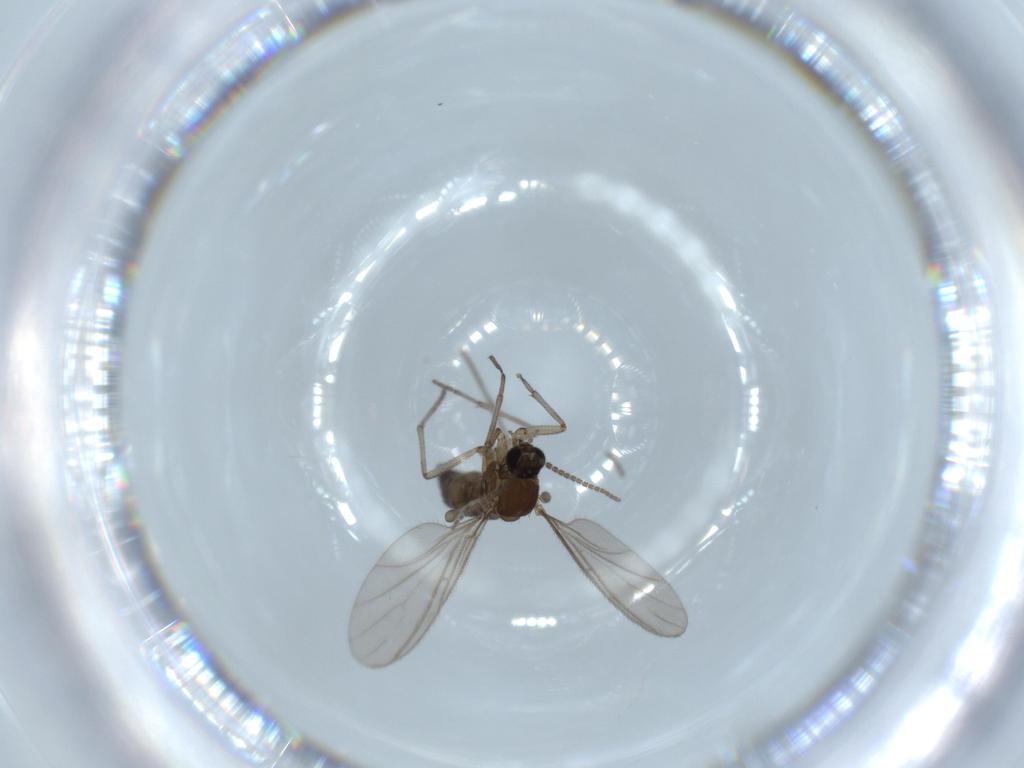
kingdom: Animalia
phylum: Arthropoda
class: Insecta
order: Diptera
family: Sciaridae
